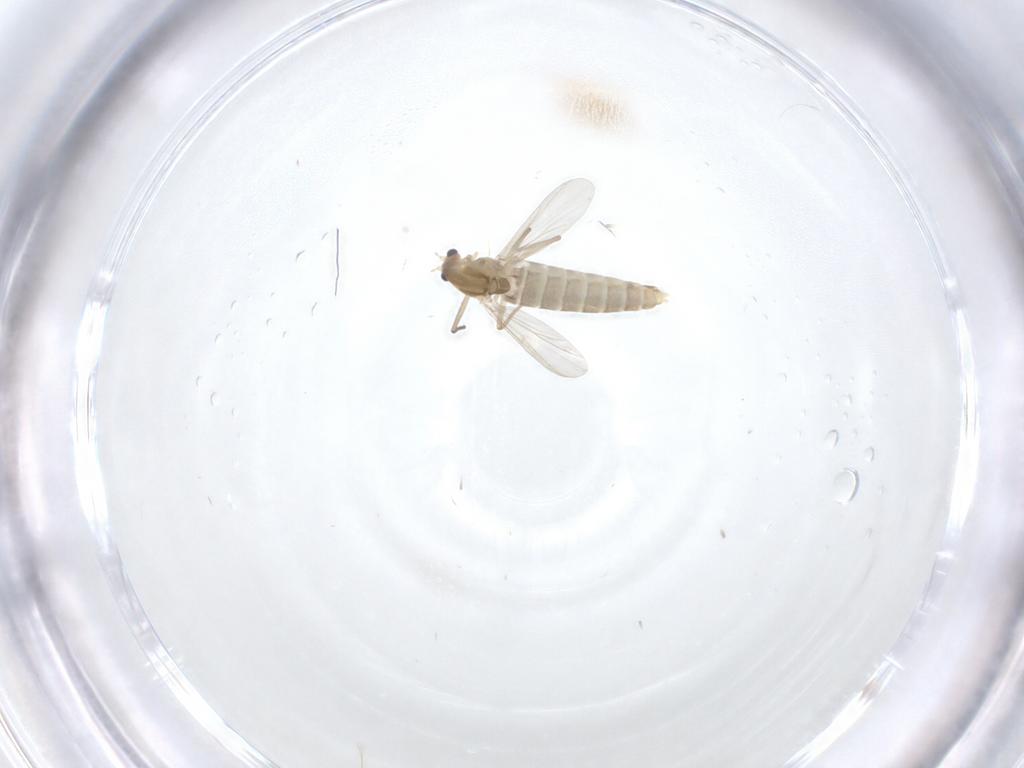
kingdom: Animalia
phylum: Arthropoda
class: Insecta
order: Diptera
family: Chironomidae
